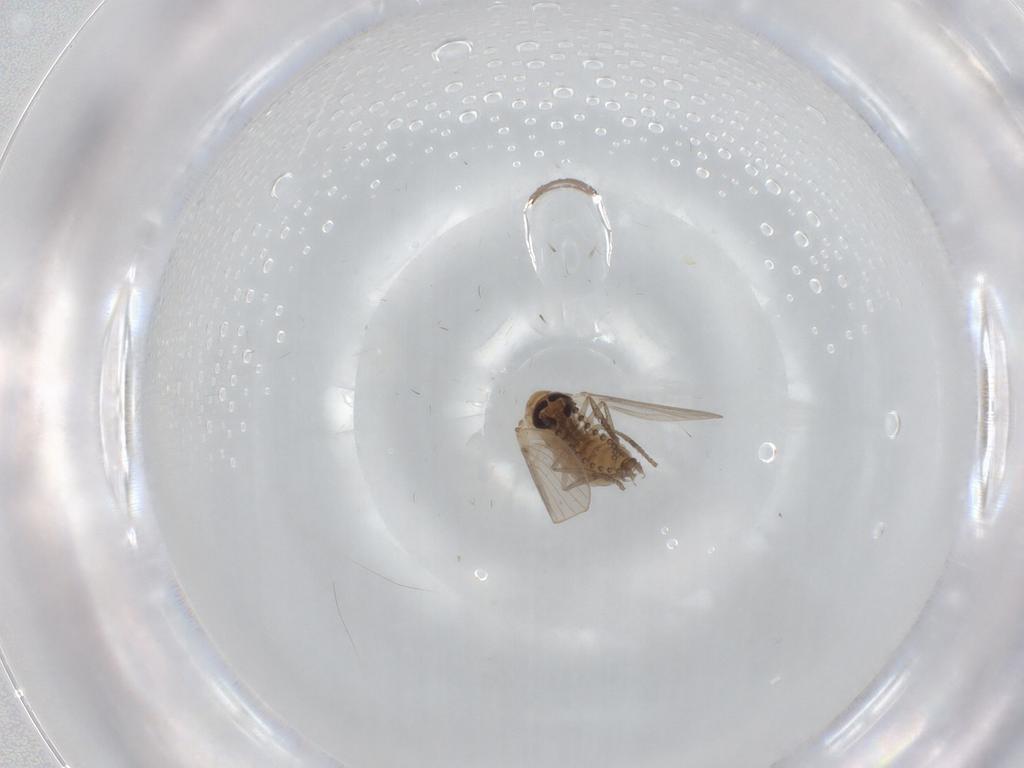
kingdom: Animalia
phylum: Arthropoda
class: Insecta
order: Diptera
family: Psychodidae
